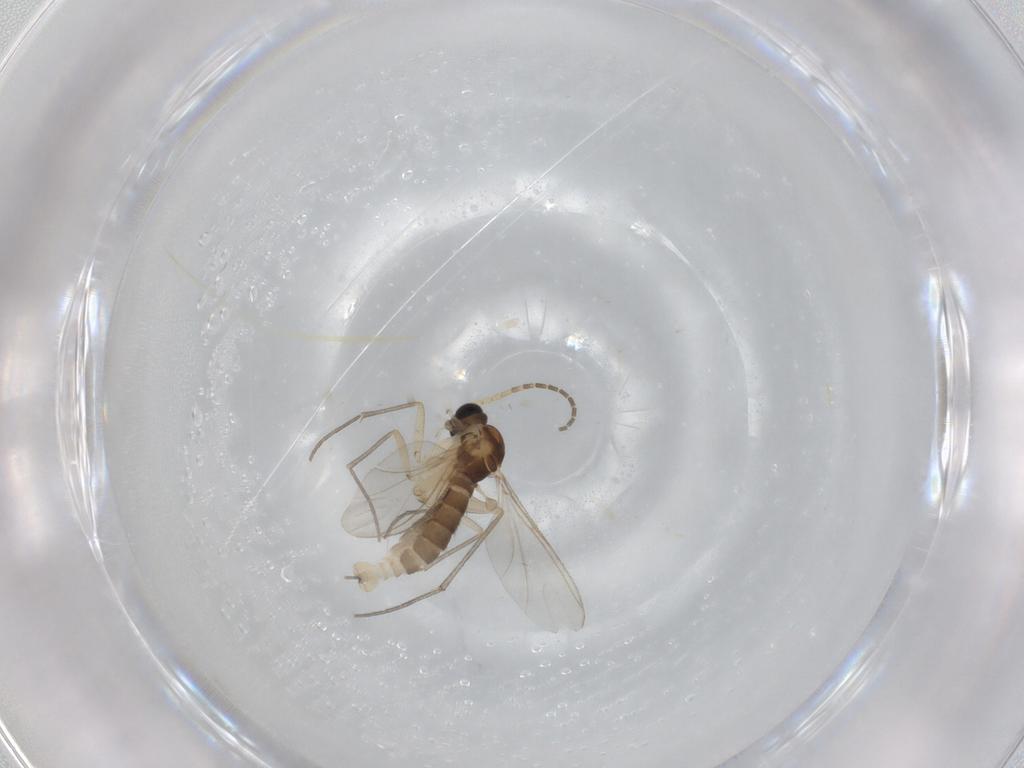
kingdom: Animalia
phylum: Arthropoda
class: Insecta
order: Diptera
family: Sciaridae
